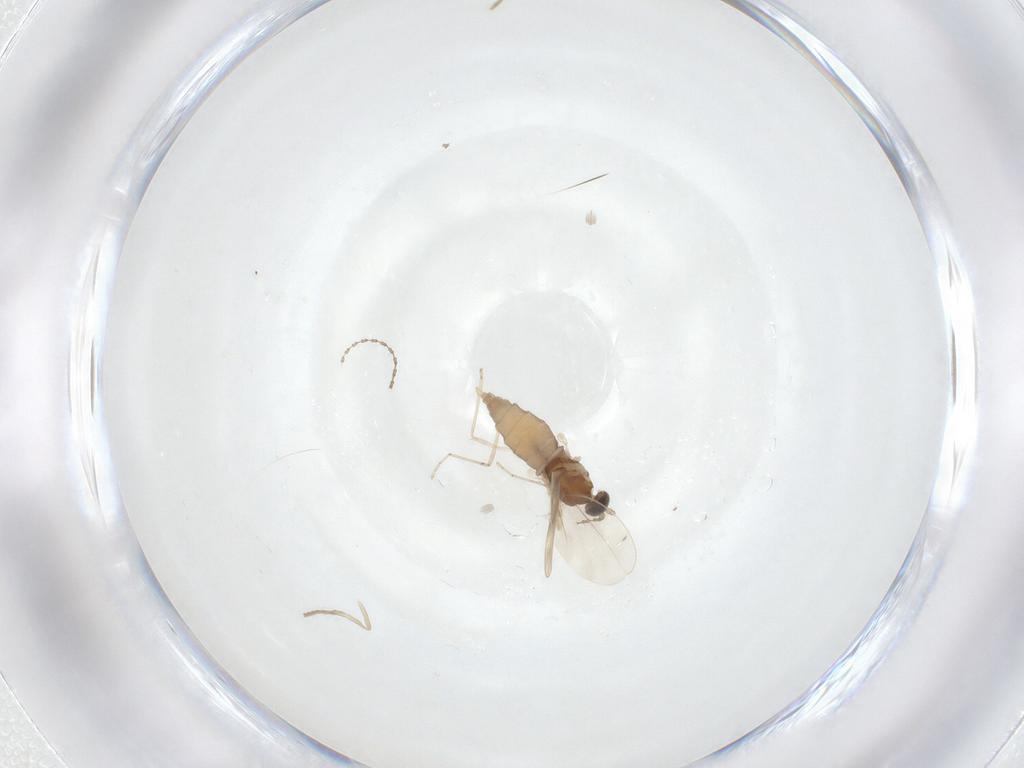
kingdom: Animalia
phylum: Arthropoda
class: Insecta
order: Diptera
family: Cecidomyiidae
